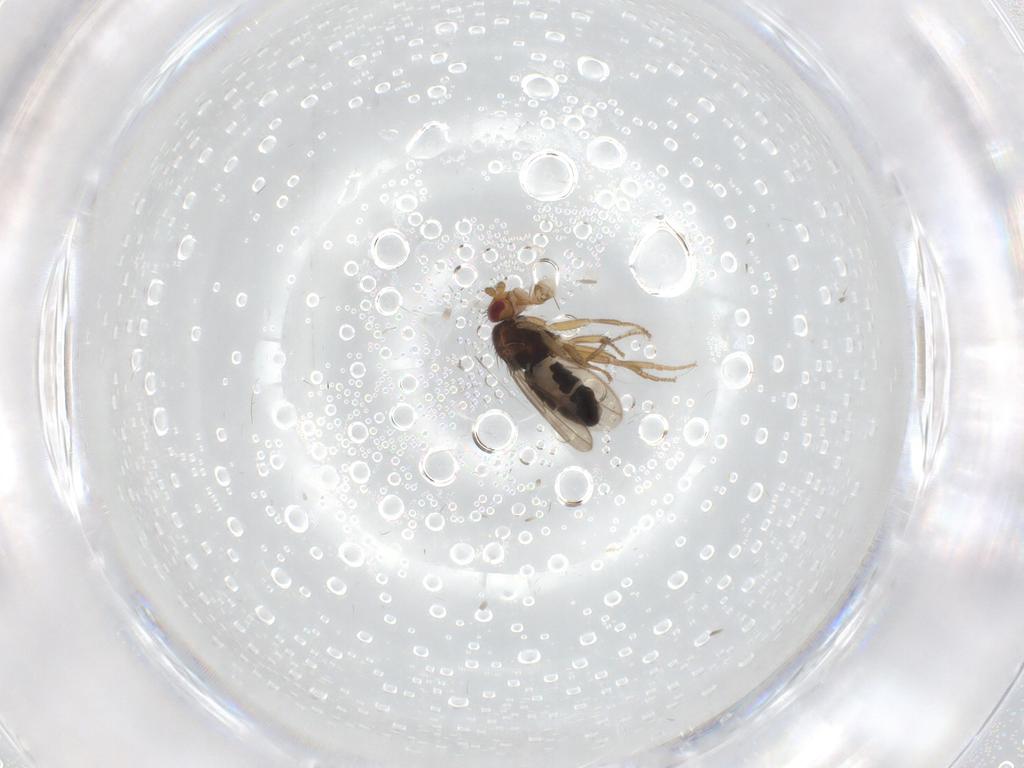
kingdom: Animalia
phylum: Arthropoda
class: Insecta
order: Diptera
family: Sphaeroceridae
